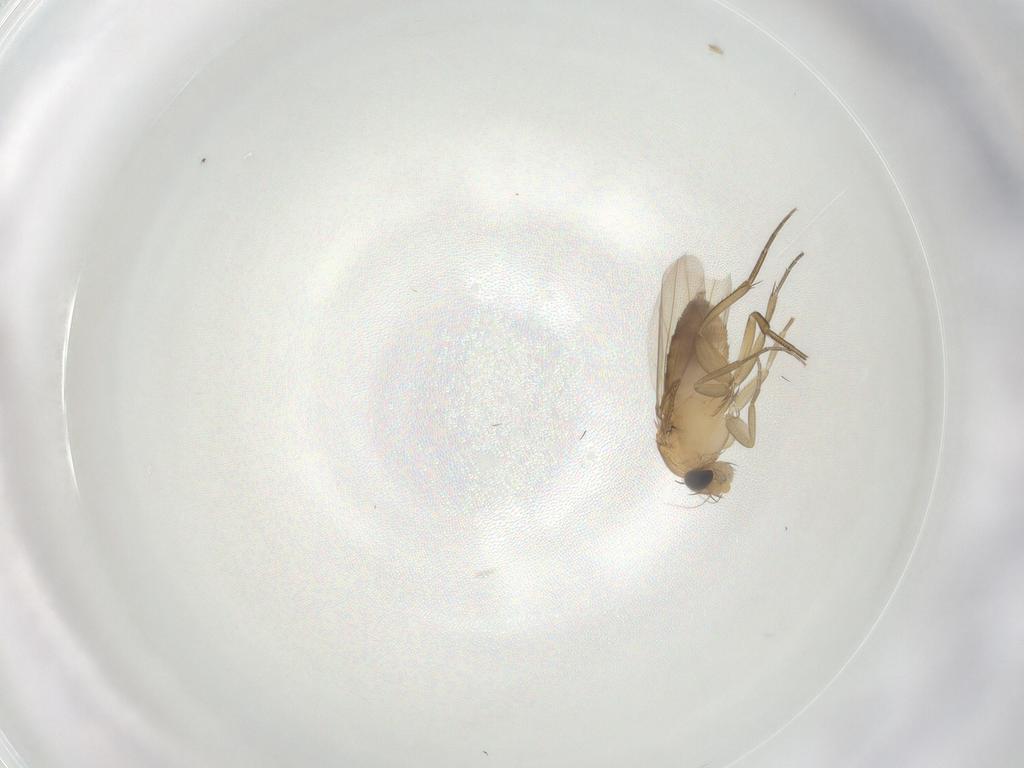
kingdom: Animalia
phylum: Arthropoda
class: Insecta
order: Diptera
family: Sciaridae
